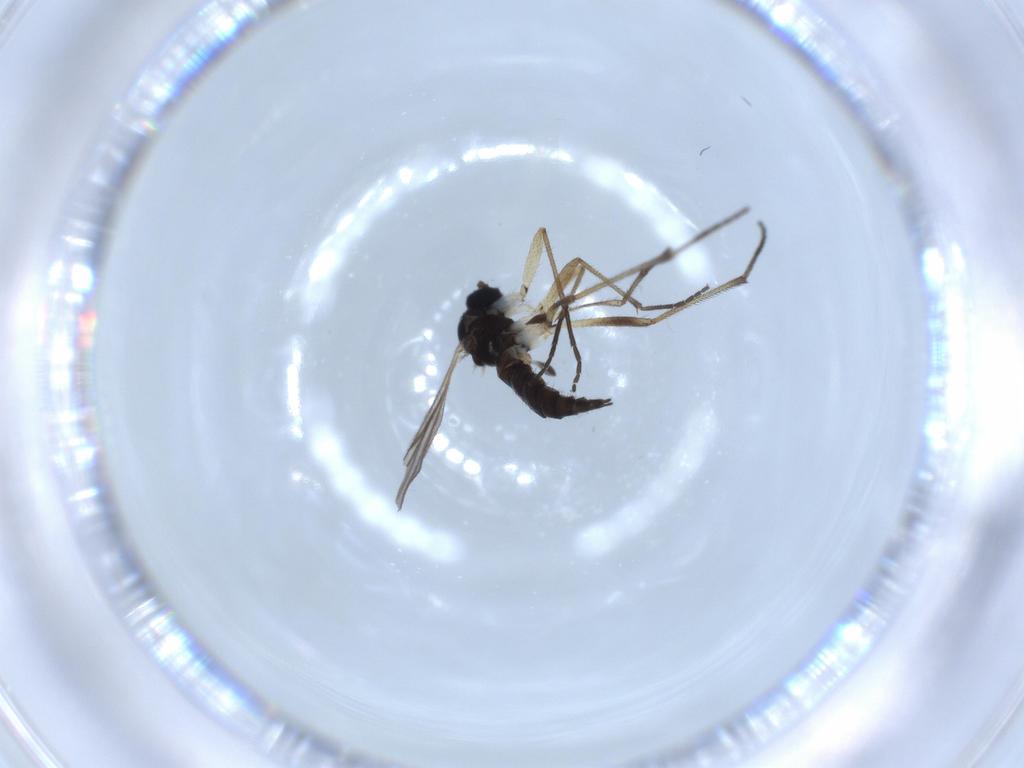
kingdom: Animalia
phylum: Arthropoda
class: Insecta
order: Diptera
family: Sciaridae
